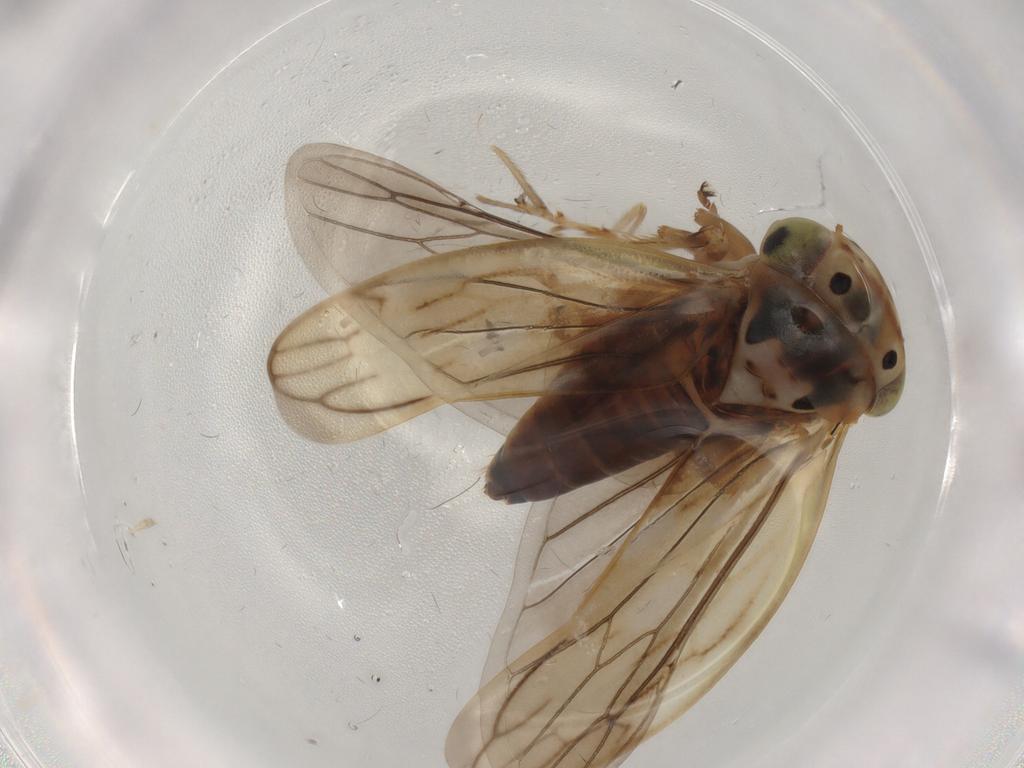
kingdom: Animalia
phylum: Arthropoda
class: Insecta
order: Hemiptera
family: Cicadellidae
